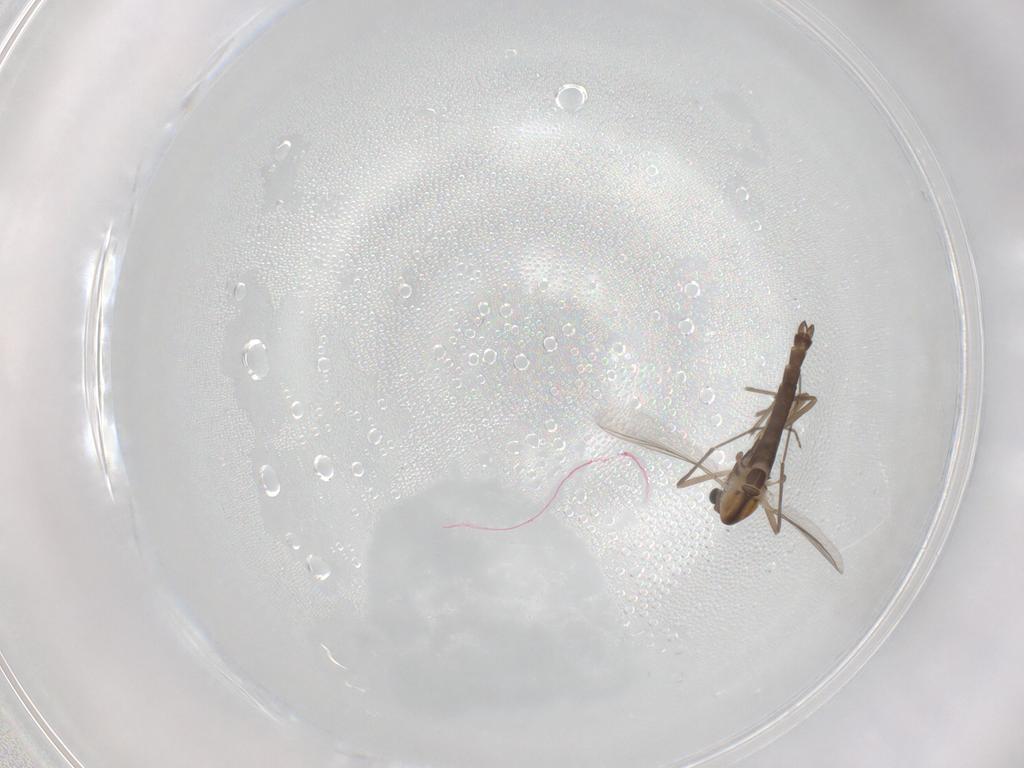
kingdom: Animalia
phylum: Arthropoda
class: Insecta
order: Diptera
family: Chironomidae
